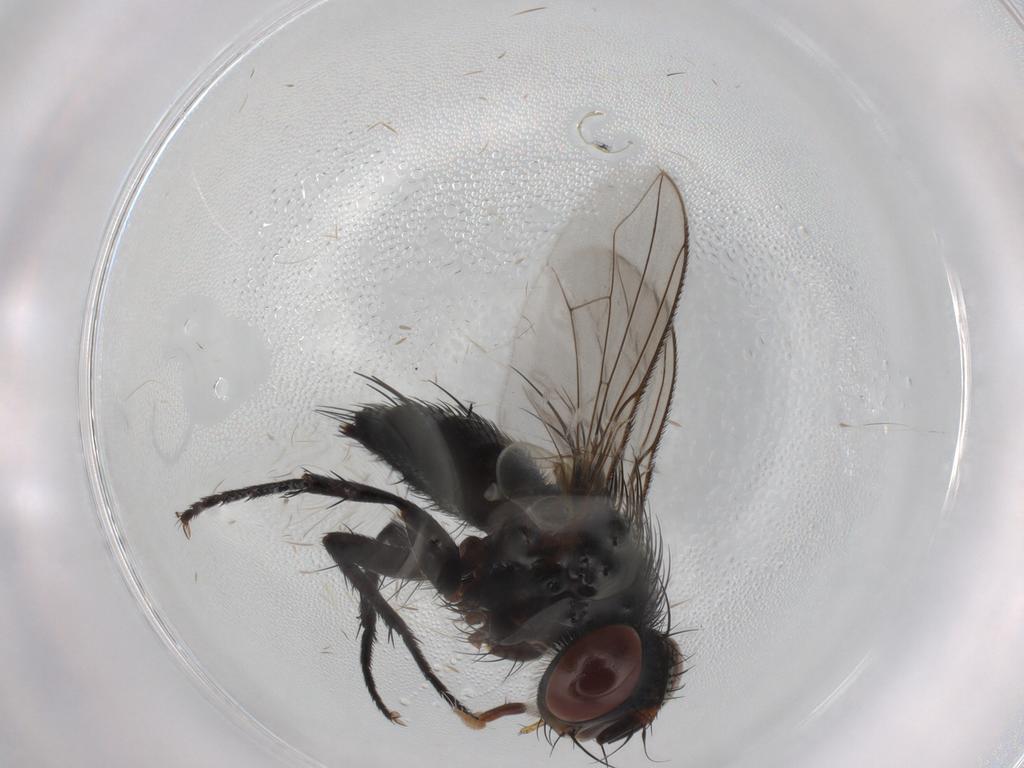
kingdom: Animalia
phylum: Arthropoda
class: Insecta
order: Diptera
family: Tachinidae
